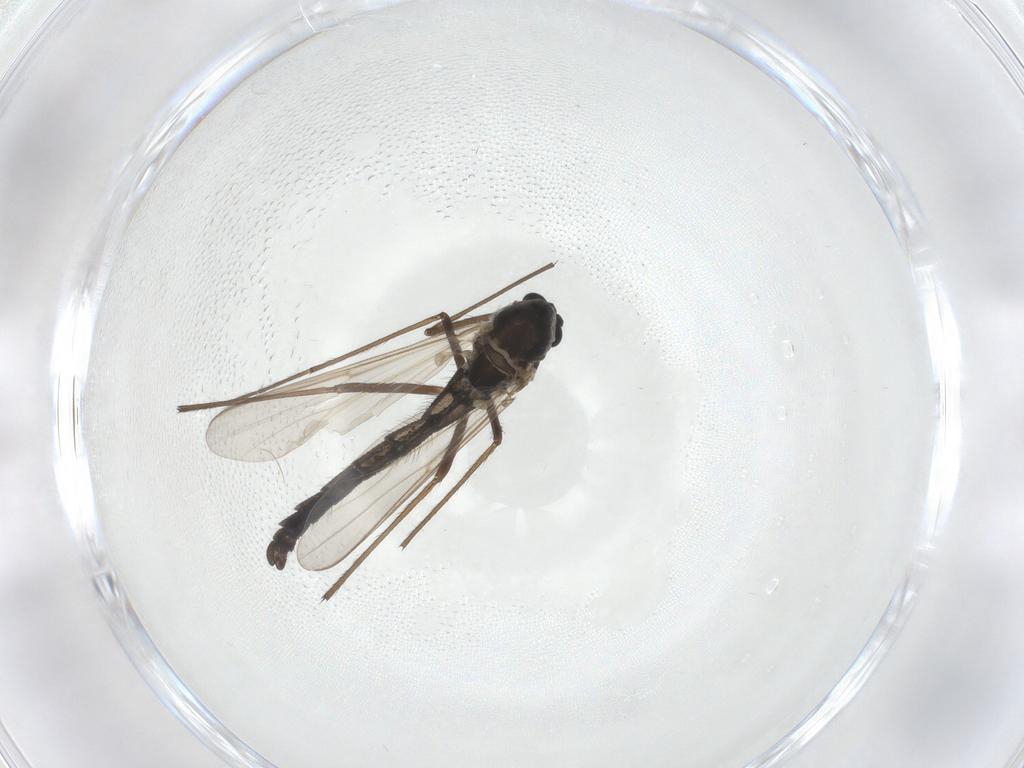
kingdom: Animalia
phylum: Arthropoda
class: Insecta
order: Diptera
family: Chironomidae
